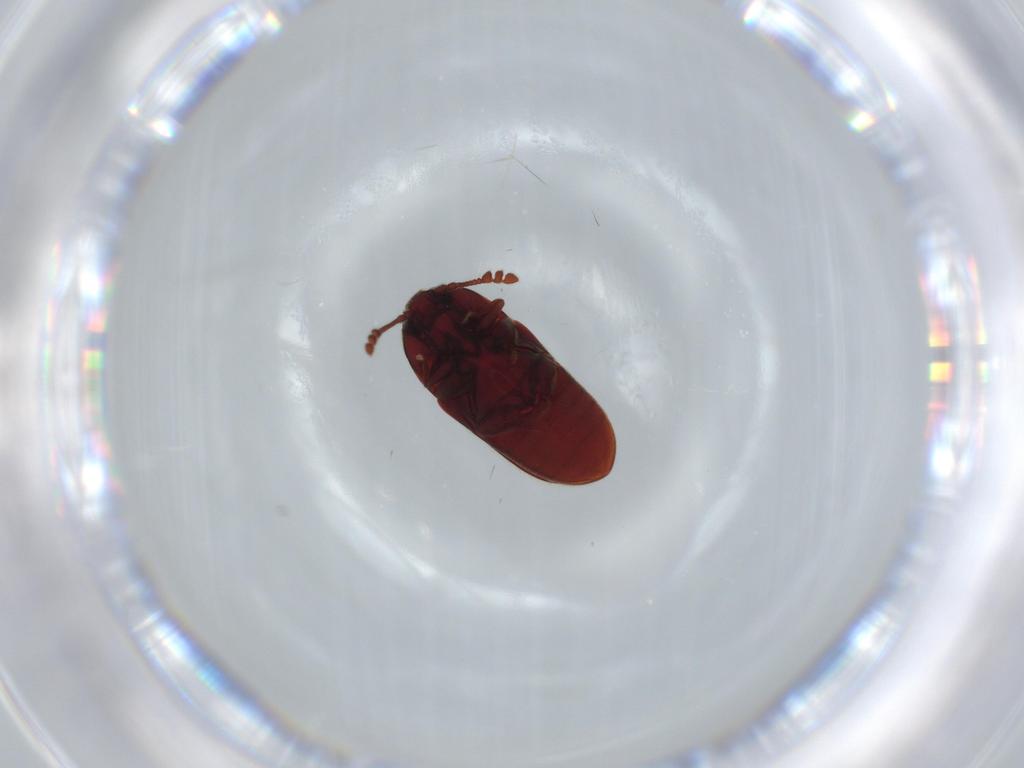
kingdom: Animalia
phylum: Arthropoda
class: Insecta
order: Coleoptera
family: Throscidae
